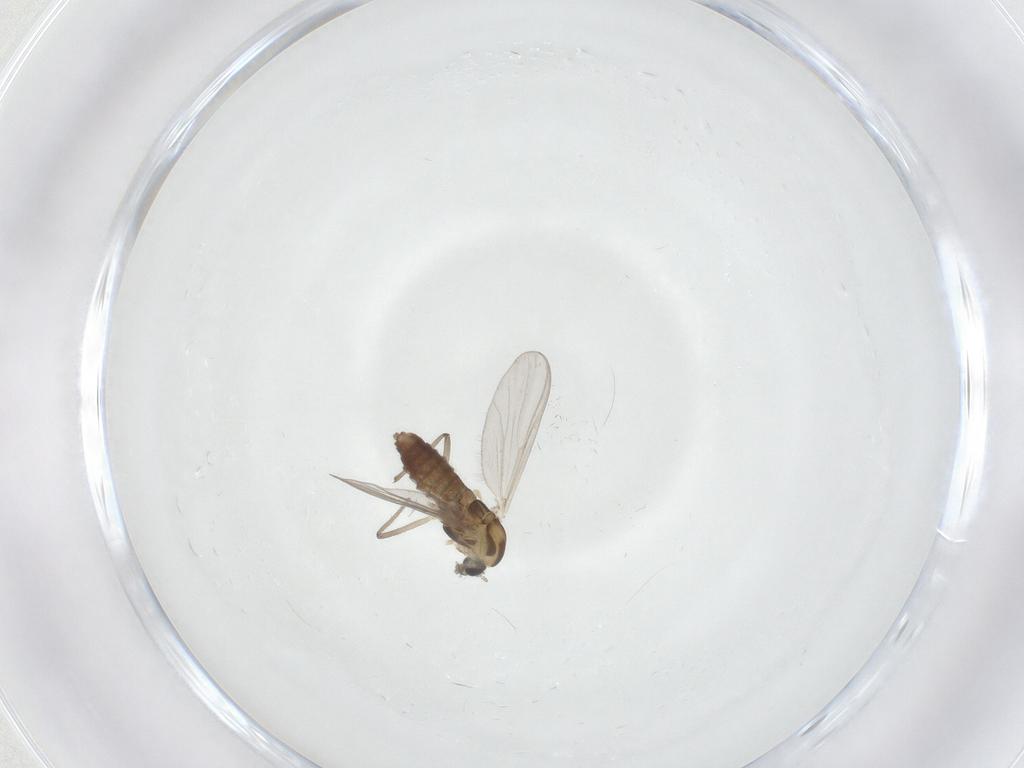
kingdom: Animalia
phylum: Arthropoda
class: Insecta
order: Diptera
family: Chironomidae
